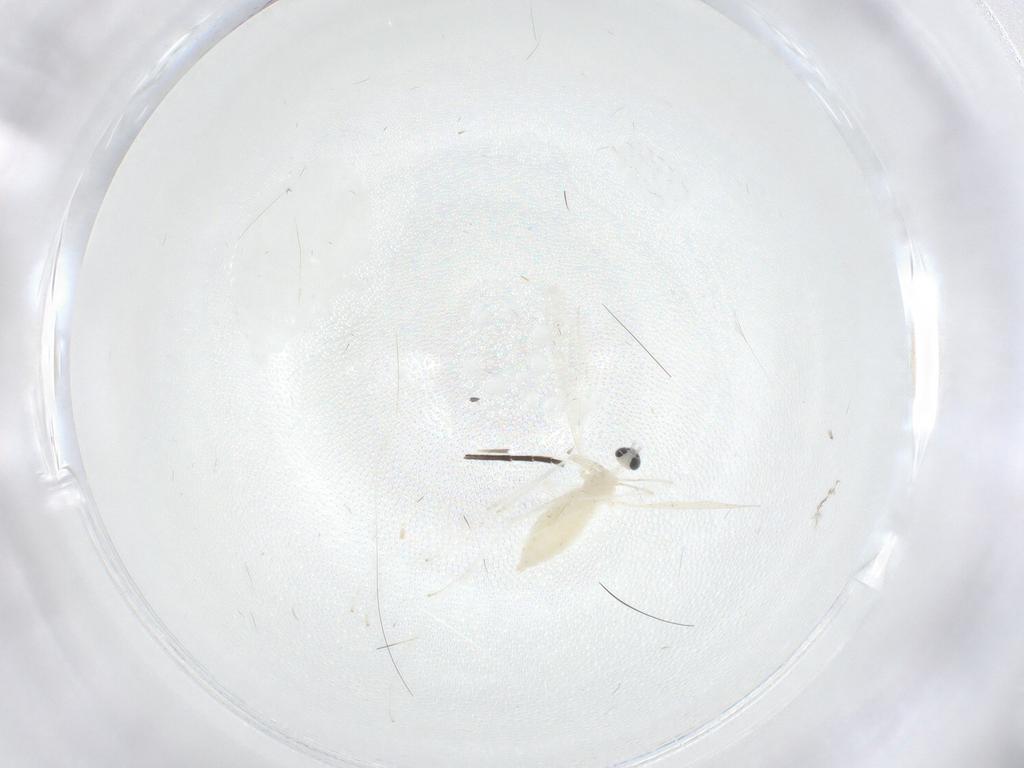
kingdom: Animalia
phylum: Arthropoda
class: Insecta
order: Diptera
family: Cecidomyiidae
